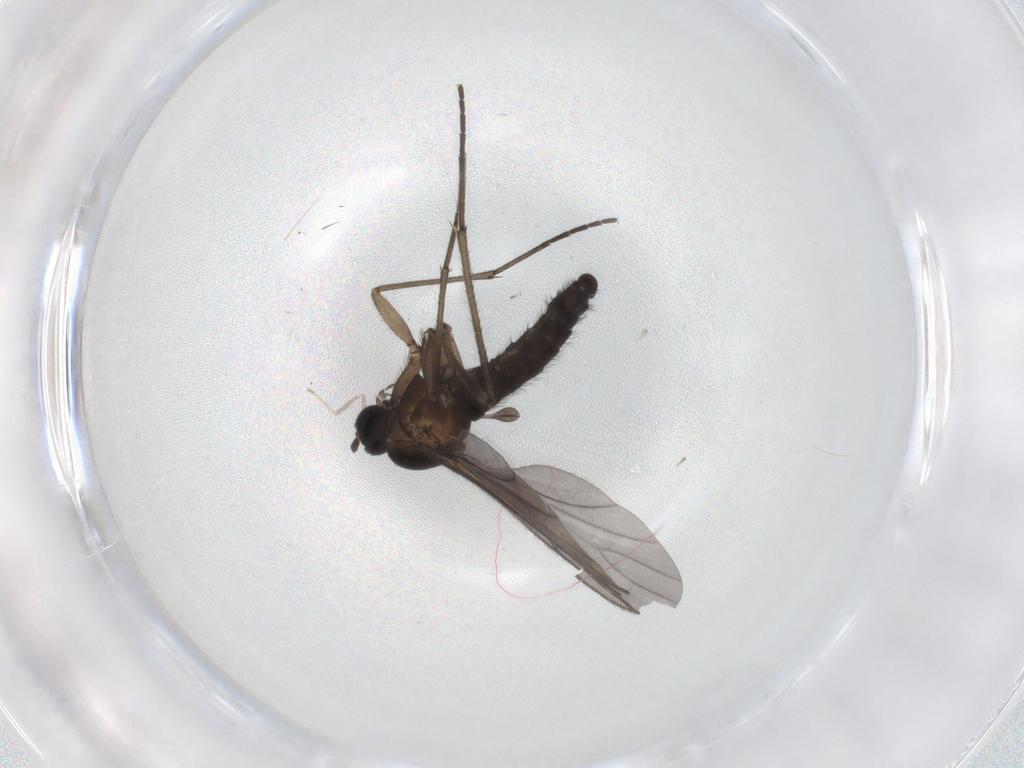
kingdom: Animalia
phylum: Arthropoda
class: Insecta
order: Diptera
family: Sciaridae
